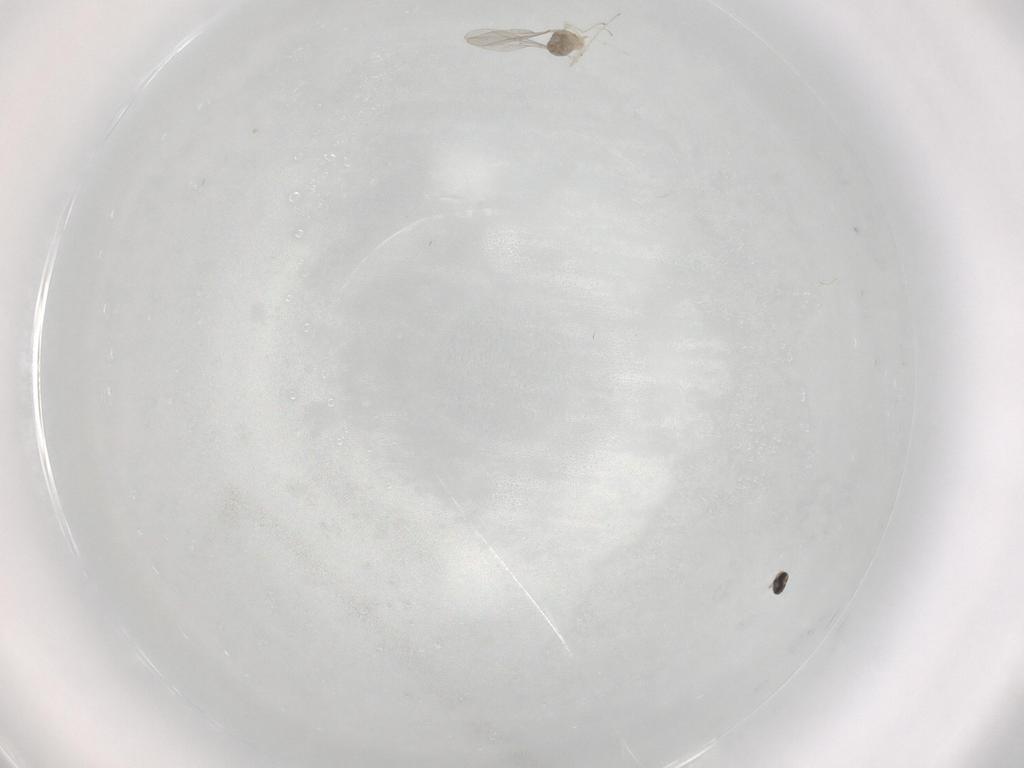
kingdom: Animalia
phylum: Arthropoda
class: Insecta
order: Diptera
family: Cecidomyiidae
